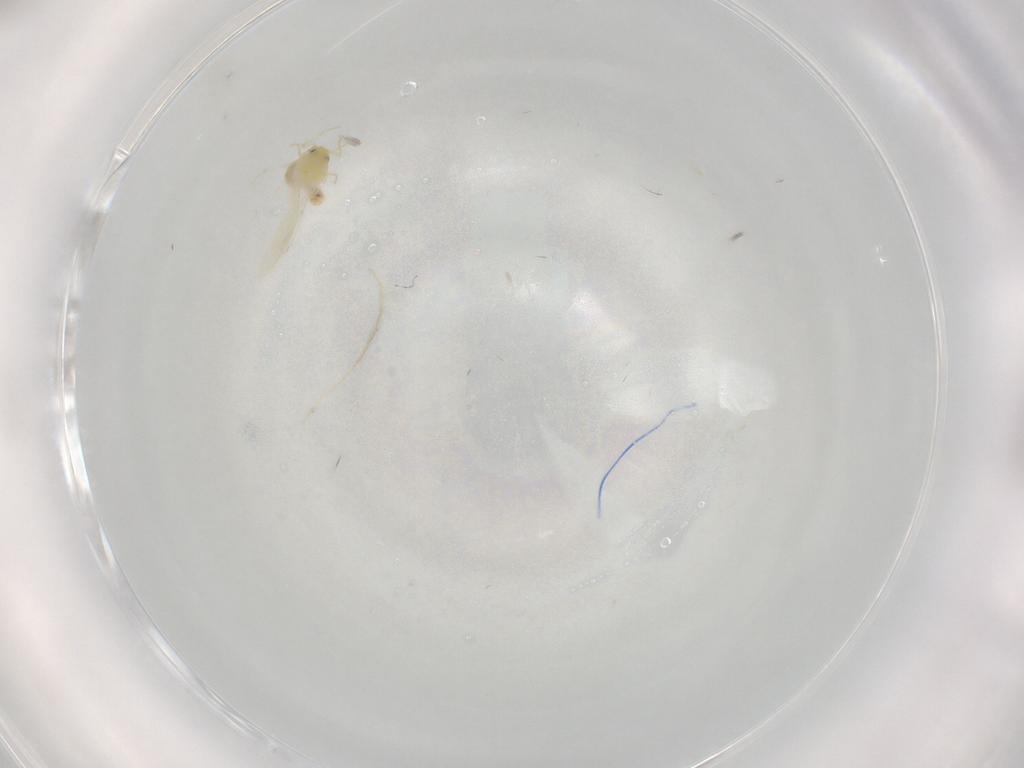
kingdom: Animalia
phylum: Arthropoda
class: Insecta
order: Hemiptera
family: Aleyrodidae
